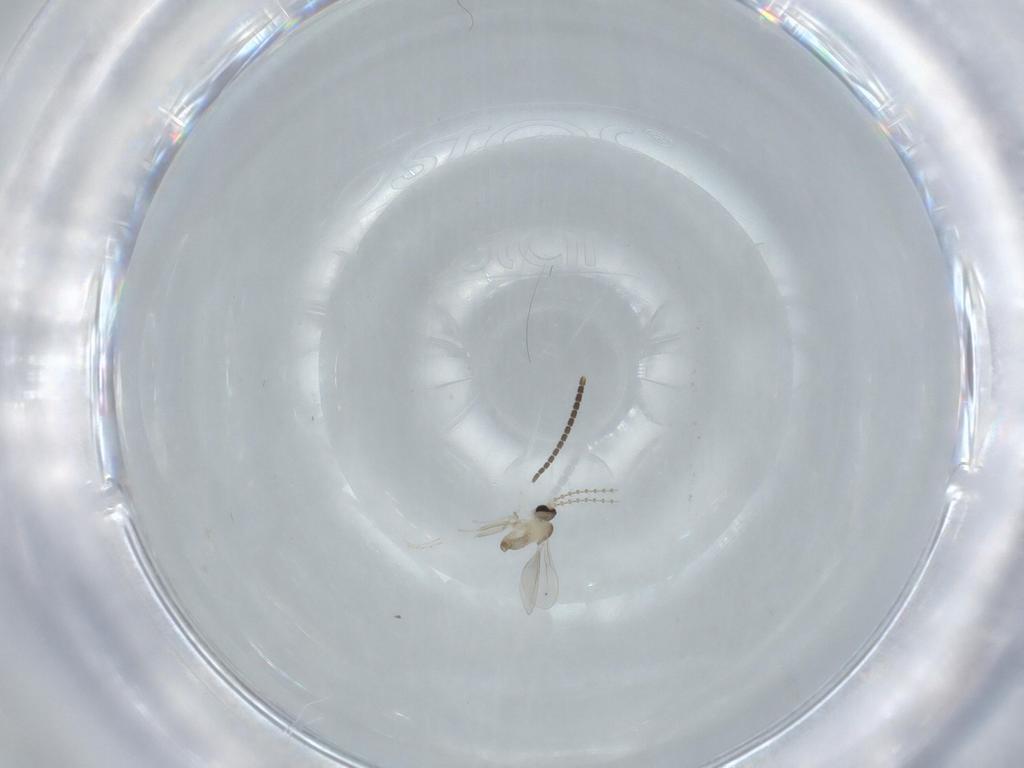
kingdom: Animalia
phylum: Arthropoda
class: Insecta
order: Diptera
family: Cecidomyiidae
